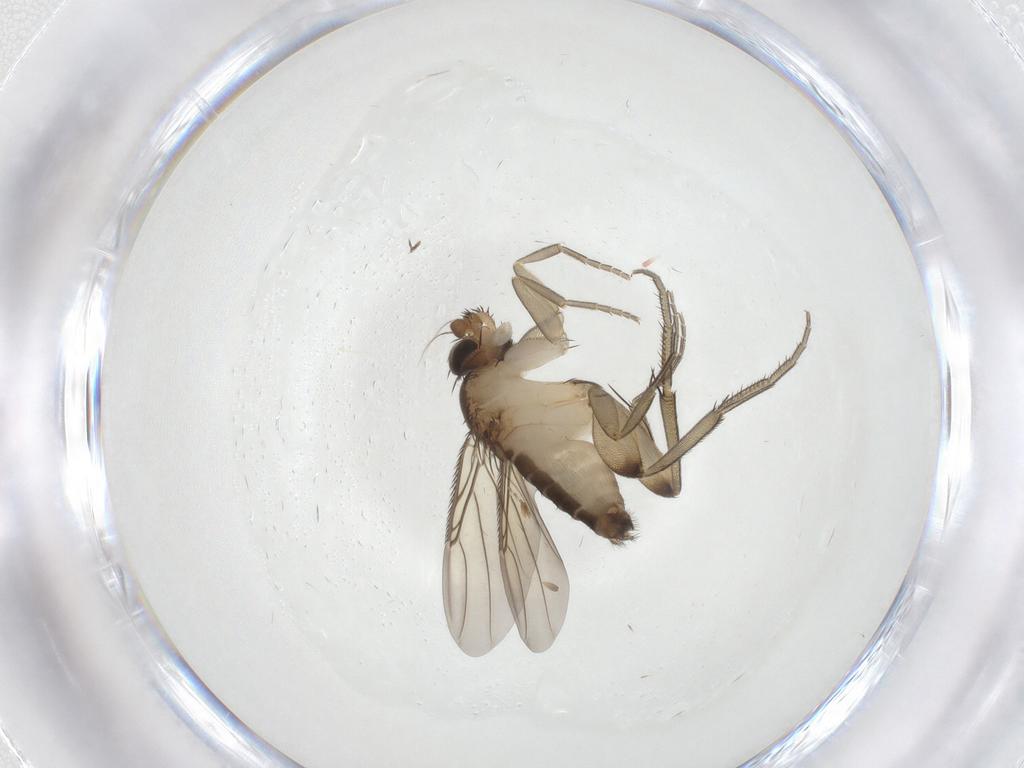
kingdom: Animalia
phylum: Arthropoda
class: Insecta
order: Diptera
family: Phoridae
